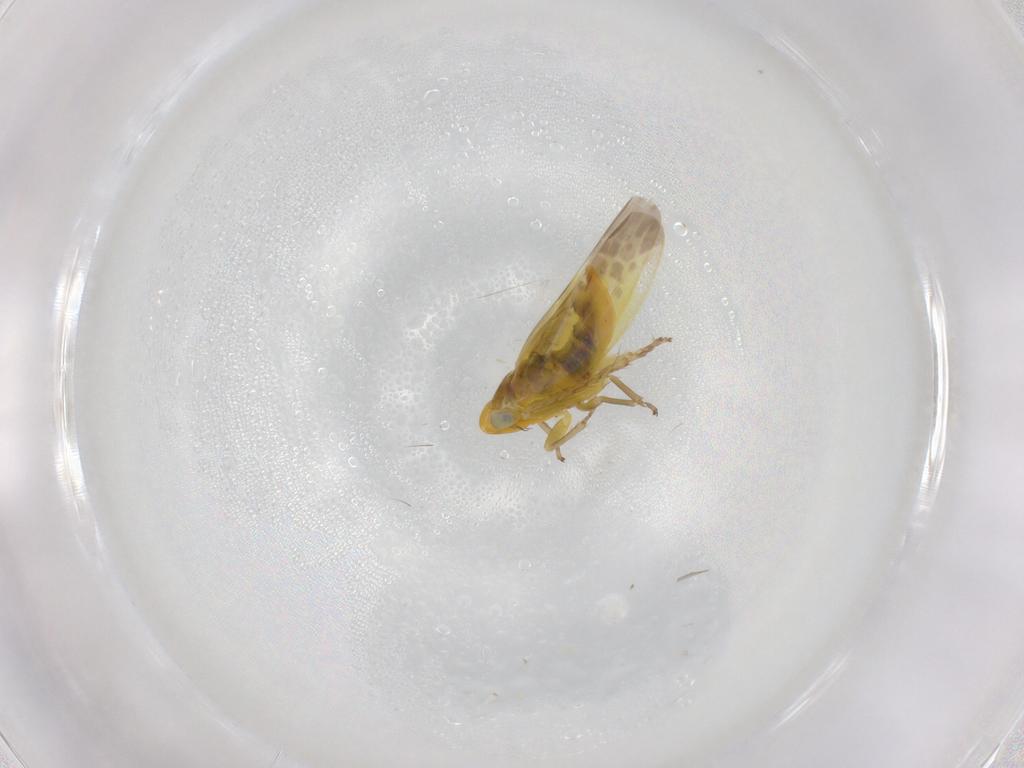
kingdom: Animalia
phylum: Arthropoda
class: Insecta
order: Hemiptera
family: Cicadellidae
